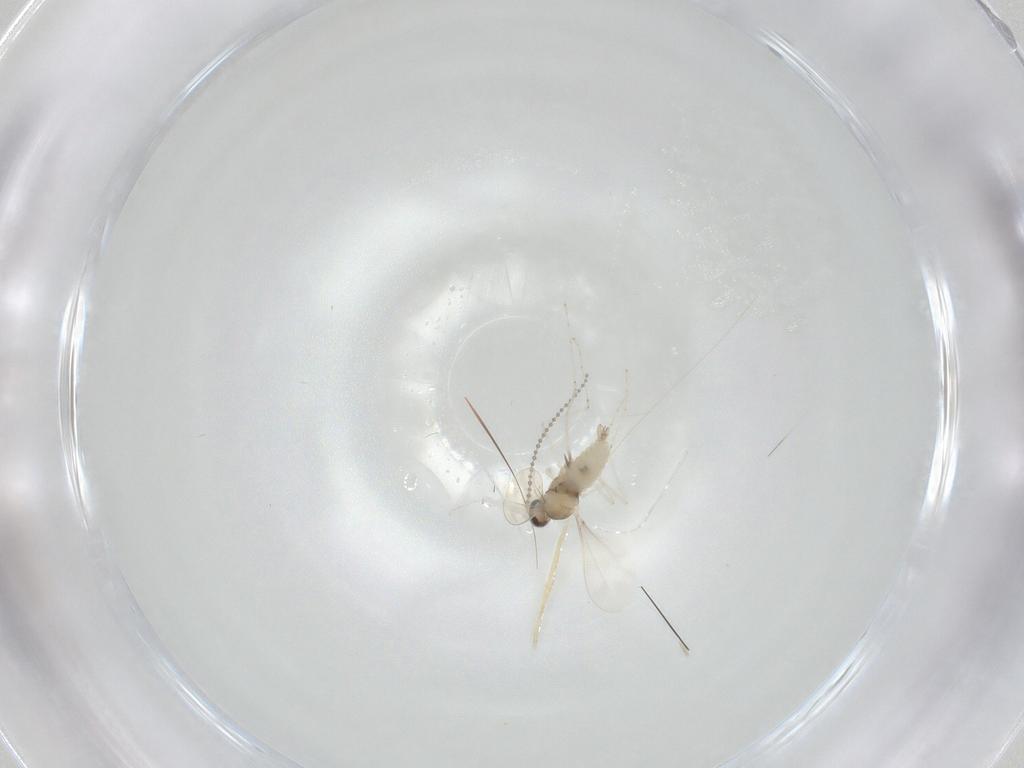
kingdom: Animalia
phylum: Arthropoda
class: Insecta
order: Diptera
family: Cecidomyiidae
